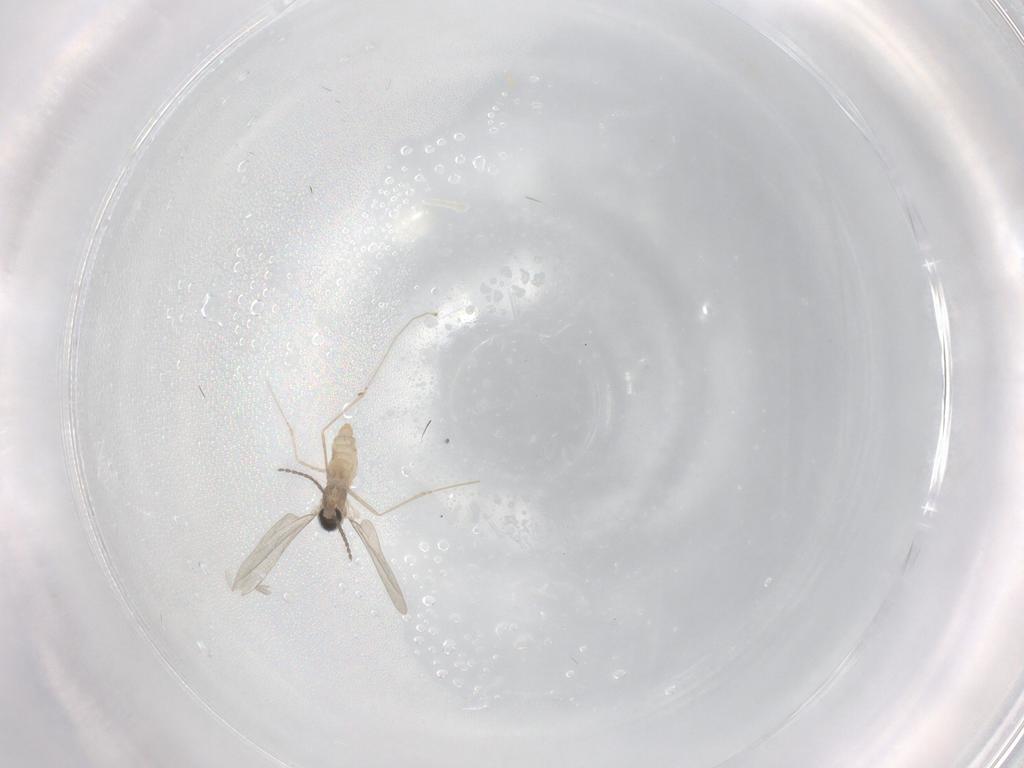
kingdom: Animalia
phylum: Arthropoda
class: Insecta
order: Diptera
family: Cecidomyiidae
